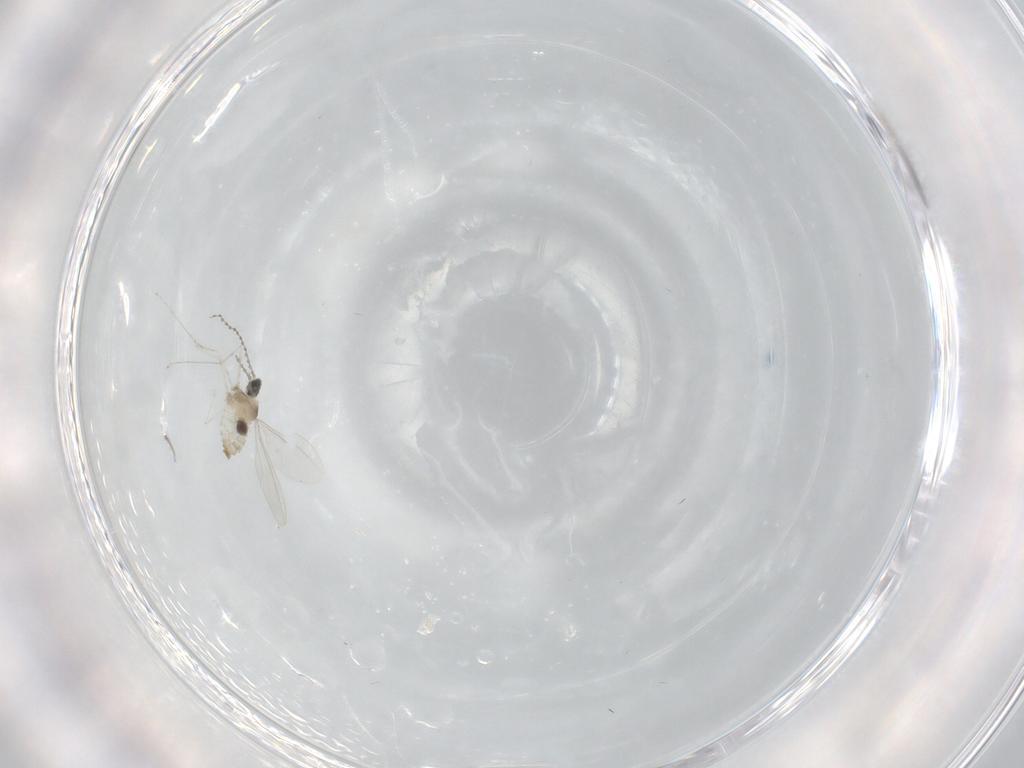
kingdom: Animalia
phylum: Arthropoda
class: Insecta
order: Diptera
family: Cecidomyiidae
